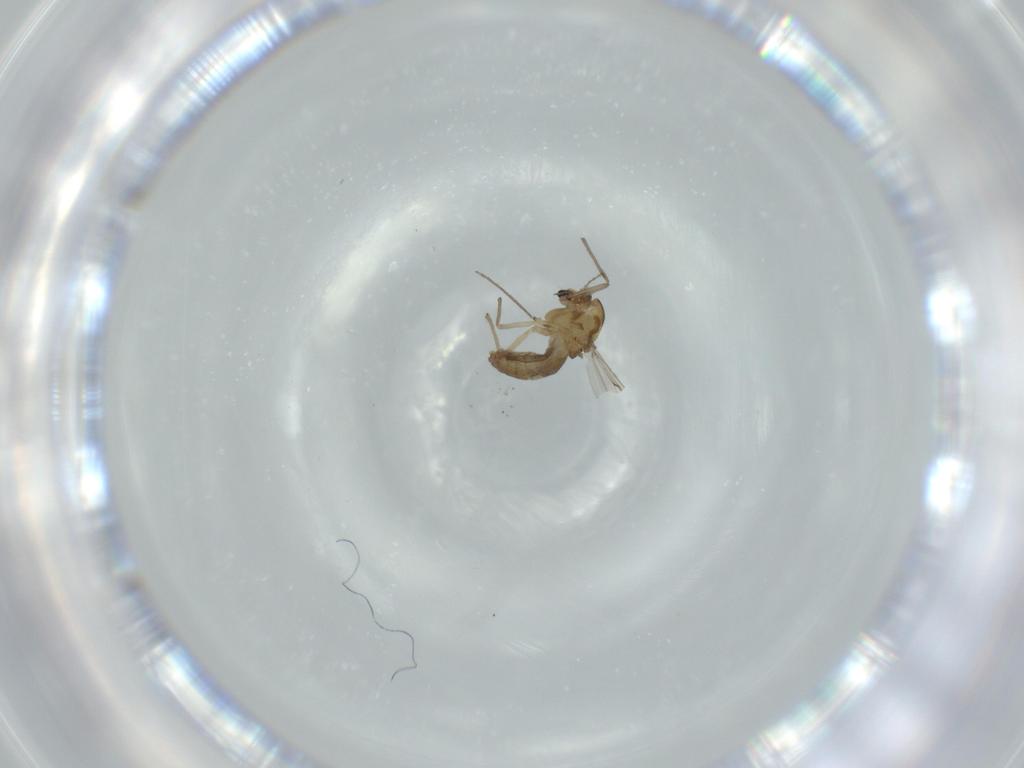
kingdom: Animalia
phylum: Arthropoda
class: Insecta
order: Diptera
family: Chironomidae
